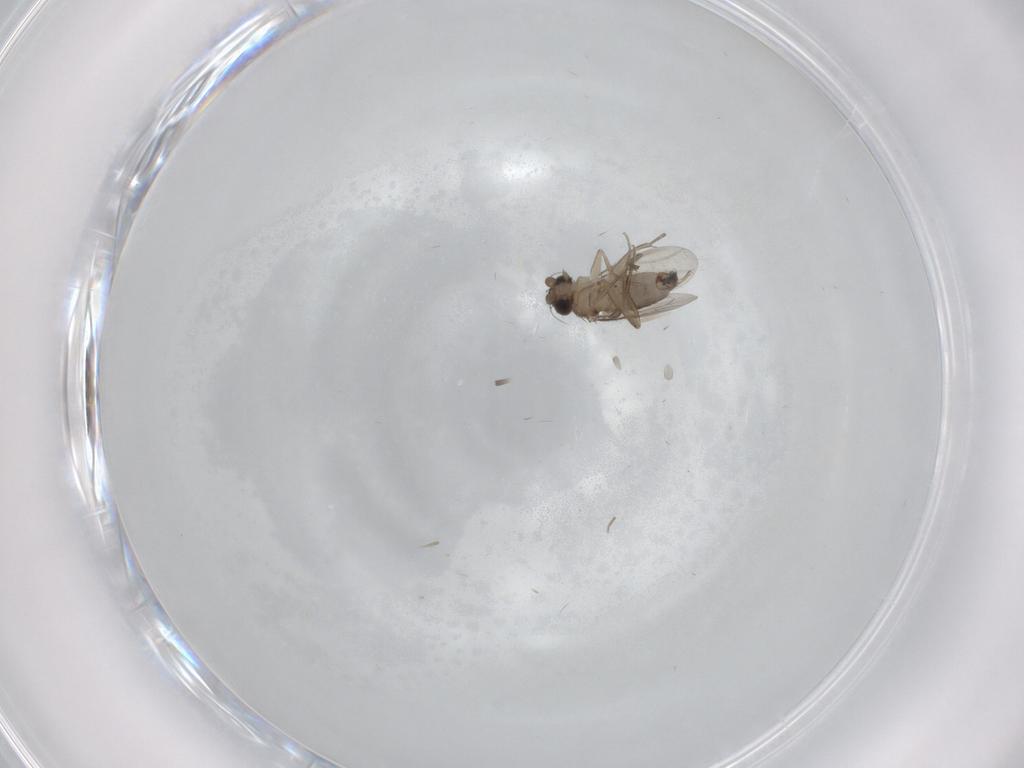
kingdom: Animalia
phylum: Arthropoda
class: Insecta
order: Diptera
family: Phoridae
